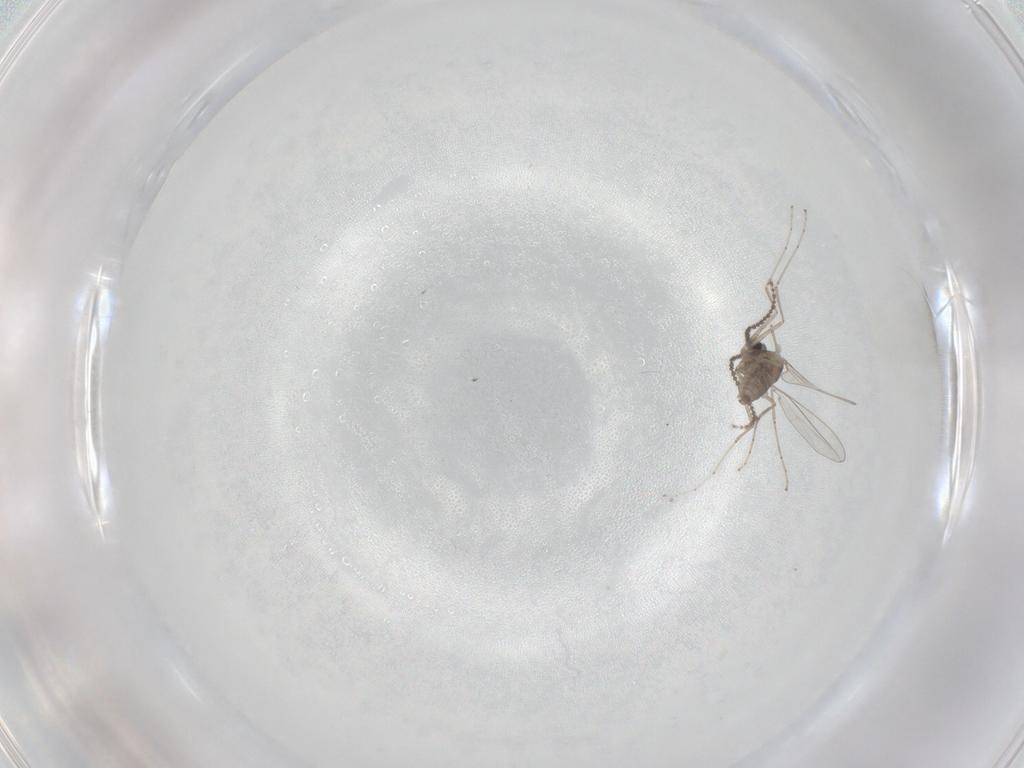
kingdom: Animalia
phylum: Arthropoda
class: Insecta
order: Diptera
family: Cecidomyiidae
